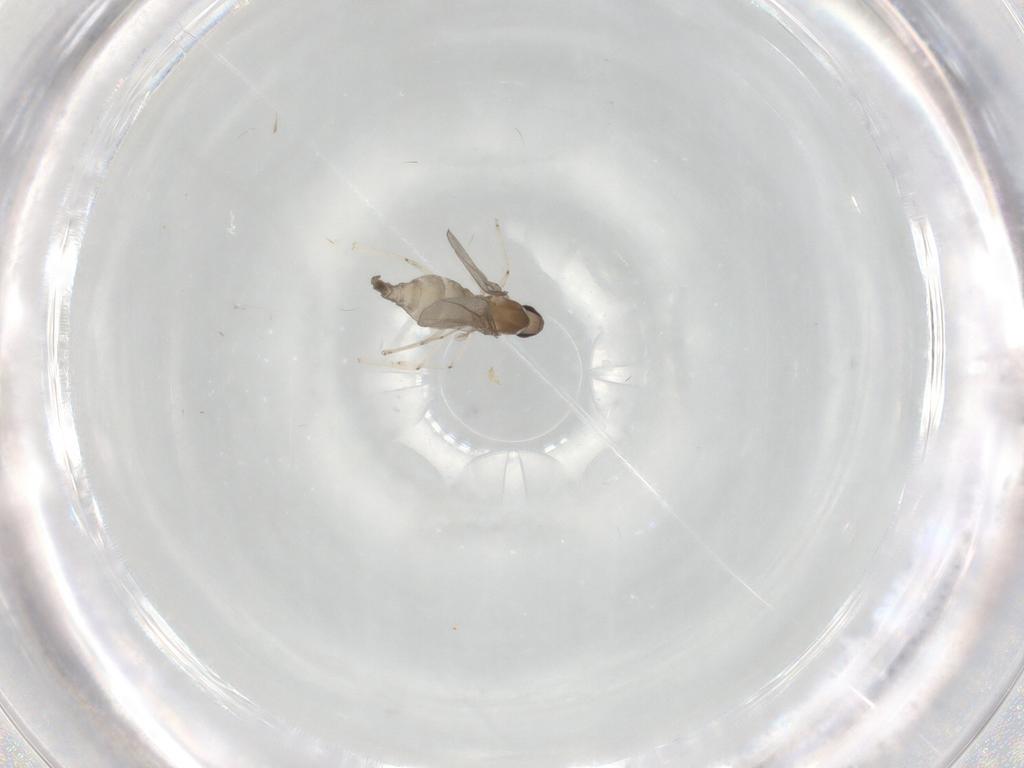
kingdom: Animalia
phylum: Arthropoda
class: Insecta
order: Diptera
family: Cecidomyiidae
